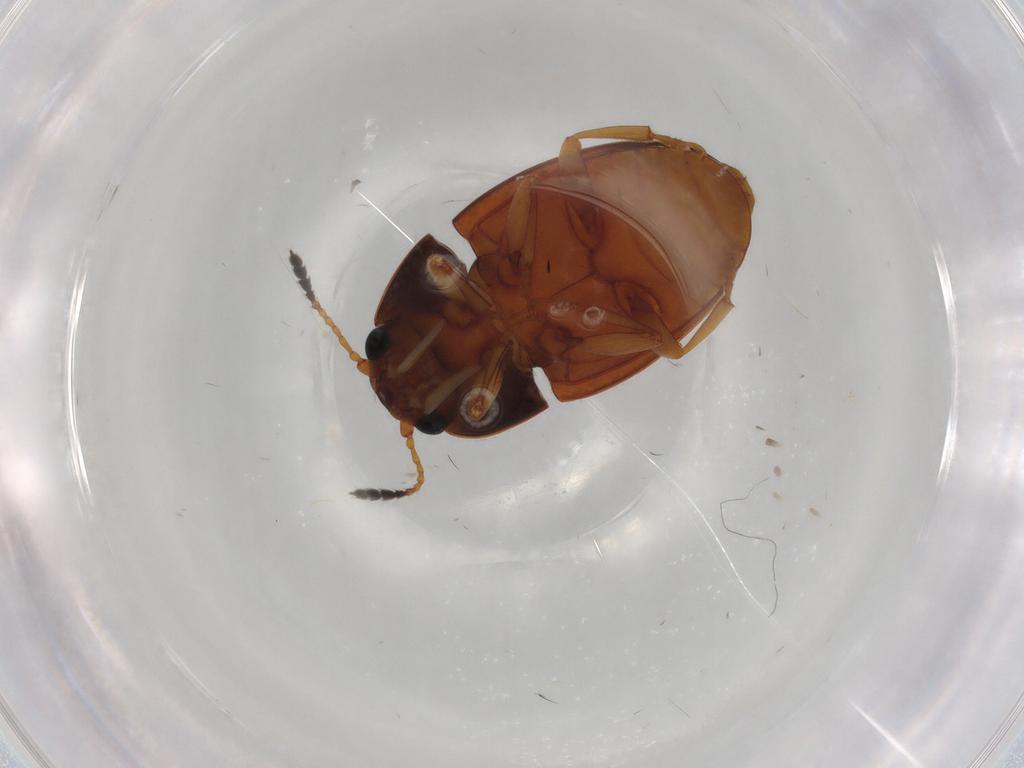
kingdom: Animalia
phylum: Arthropoda
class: Insecta
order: Coleoptera
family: Erotylidae
